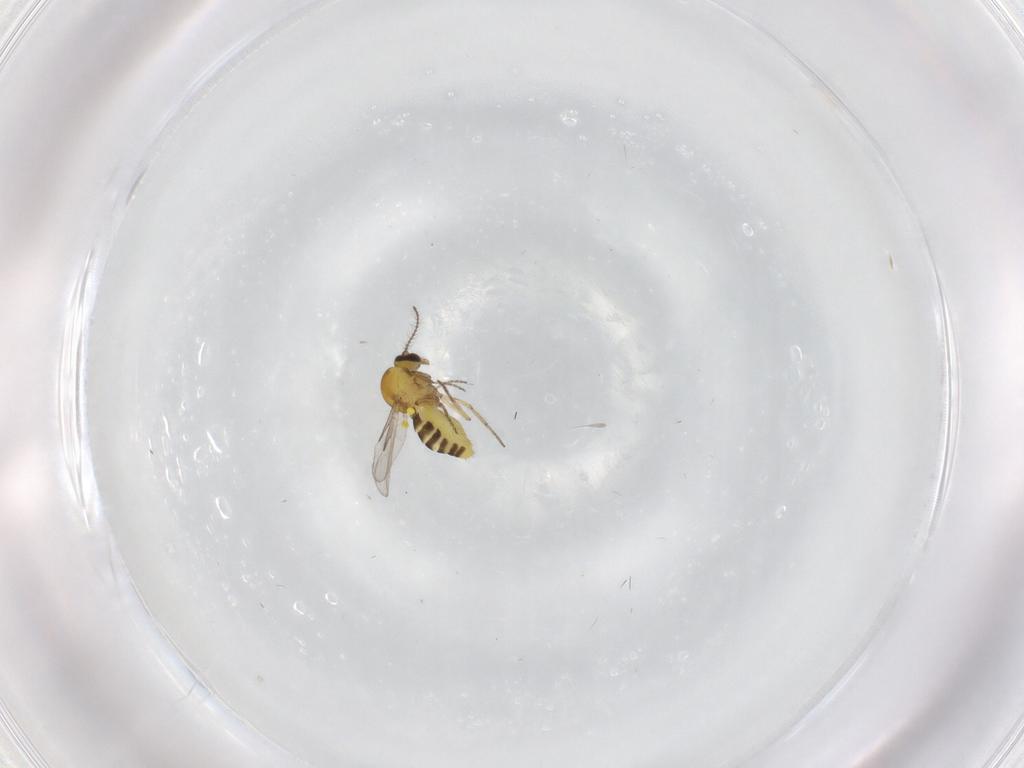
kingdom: Animalia
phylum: Arthropoda
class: Insecta
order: Diptera
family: Ceratopogonidae
